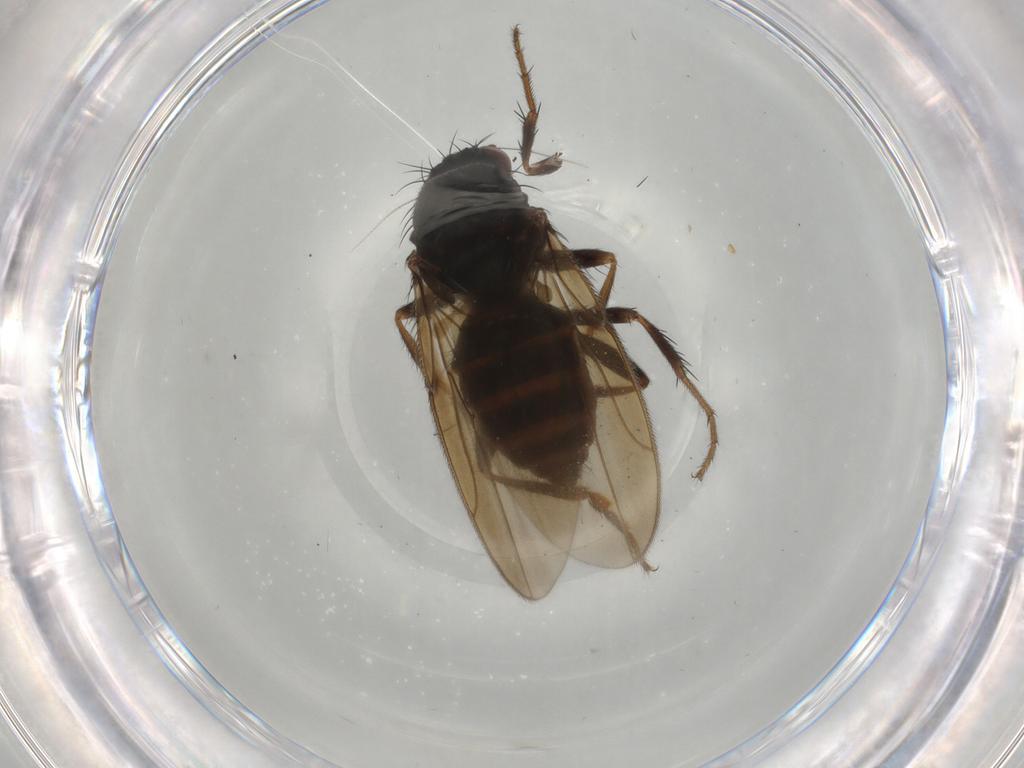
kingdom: Animalia
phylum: Arthropoda
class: Insecta
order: Diptera
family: Sphaeroceridae
